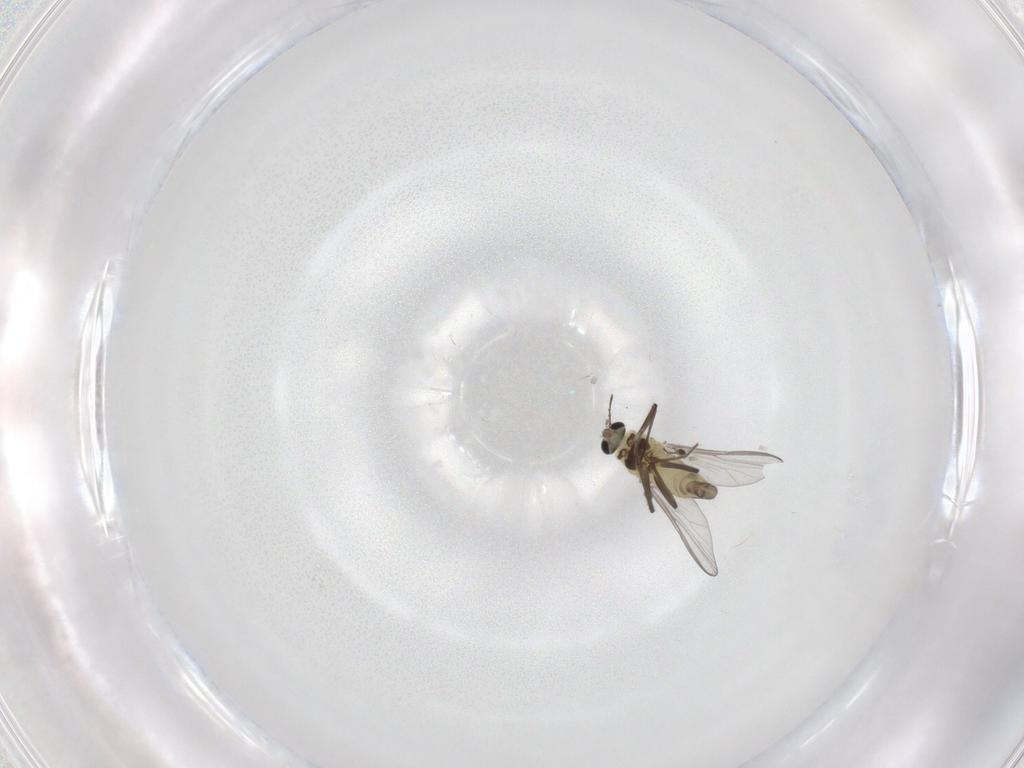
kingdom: Animalia
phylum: Arthropoda
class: Insecta
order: Diptera
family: Chironomidae
